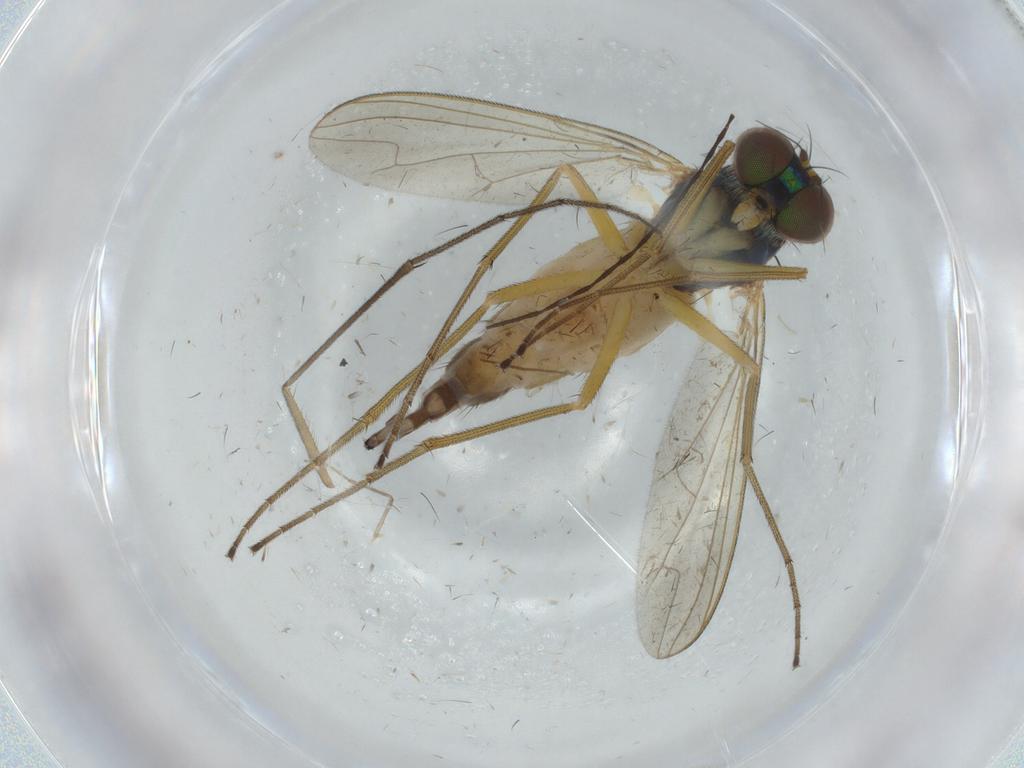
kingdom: Animalia
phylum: Arthropoda
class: Insecta
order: Diptera
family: Dolichopodidae
